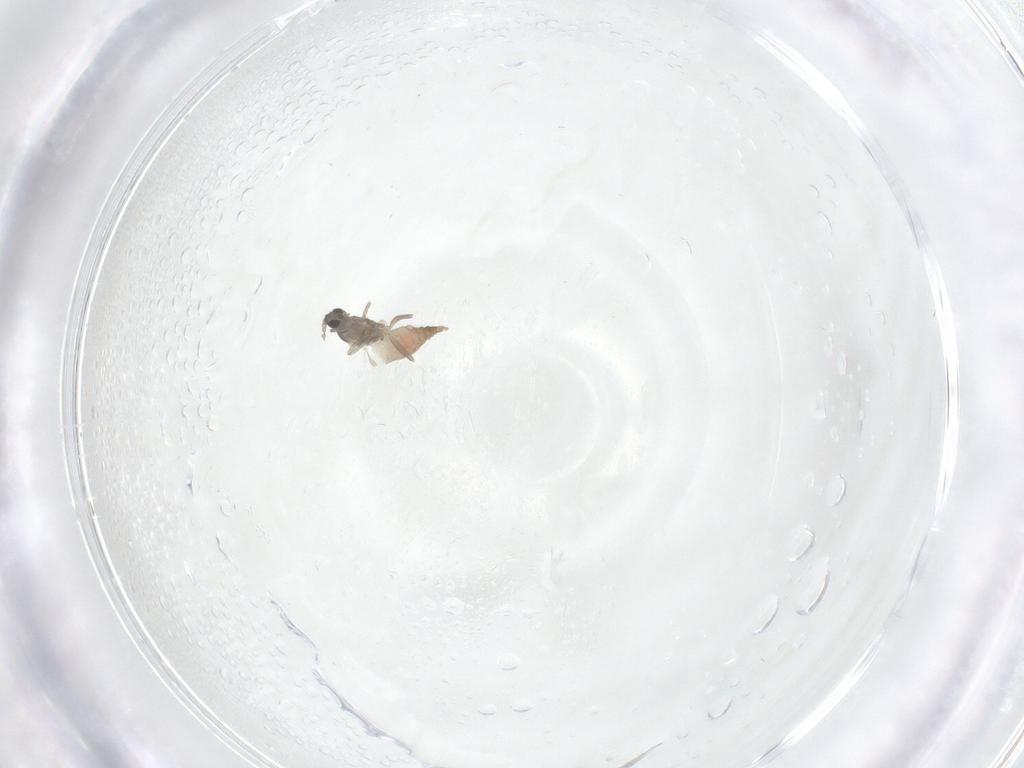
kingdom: Animalia
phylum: Arthropoda
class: Insecta
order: Diptera
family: Cecidomyiidae
